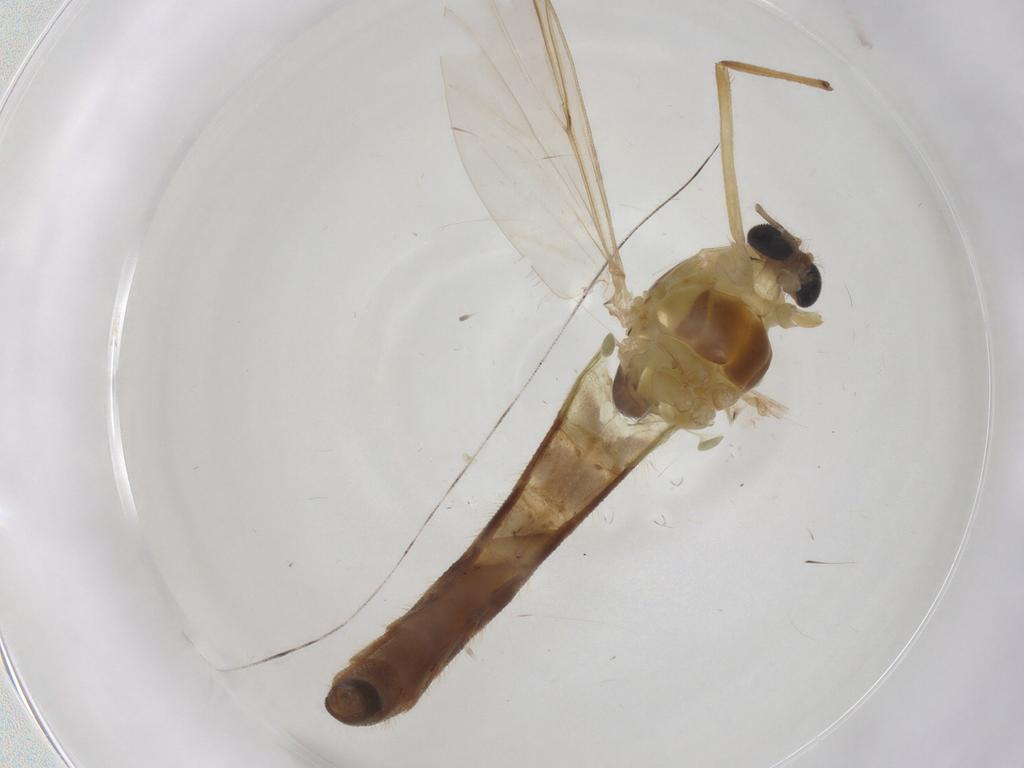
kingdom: Animalia
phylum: Arthropoda
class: Insecta
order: Diptera
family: Chironomidae
